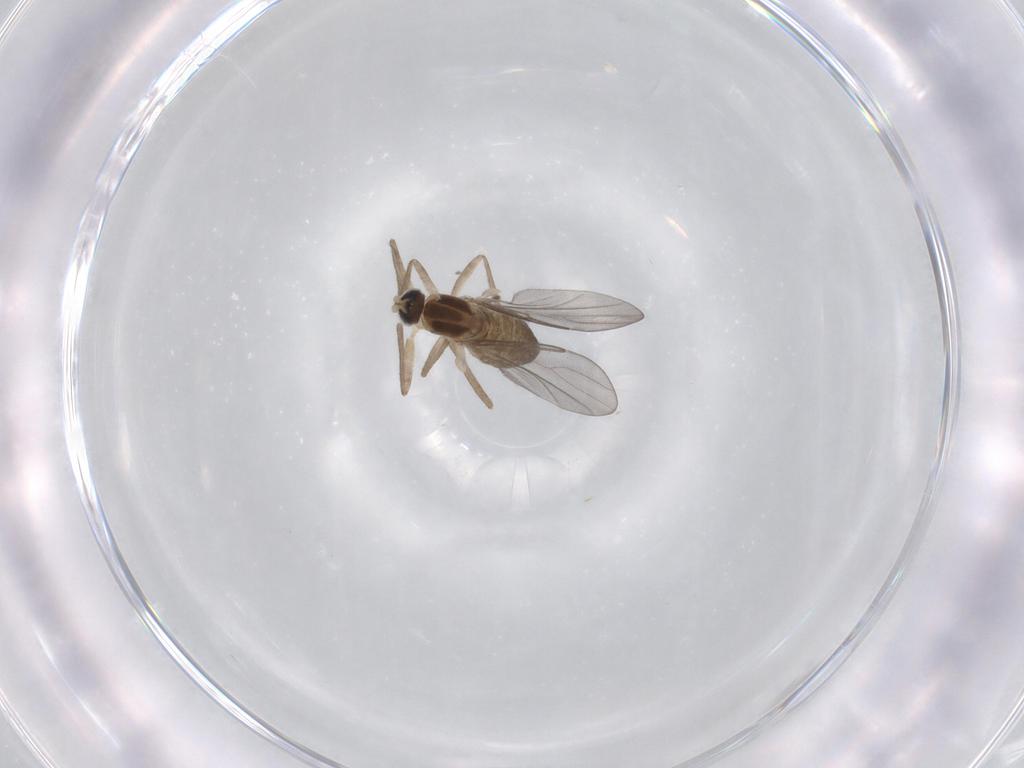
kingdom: Animalia
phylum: Arthropoda
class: Insecta
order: Diptera
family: Cecidomyiidae
